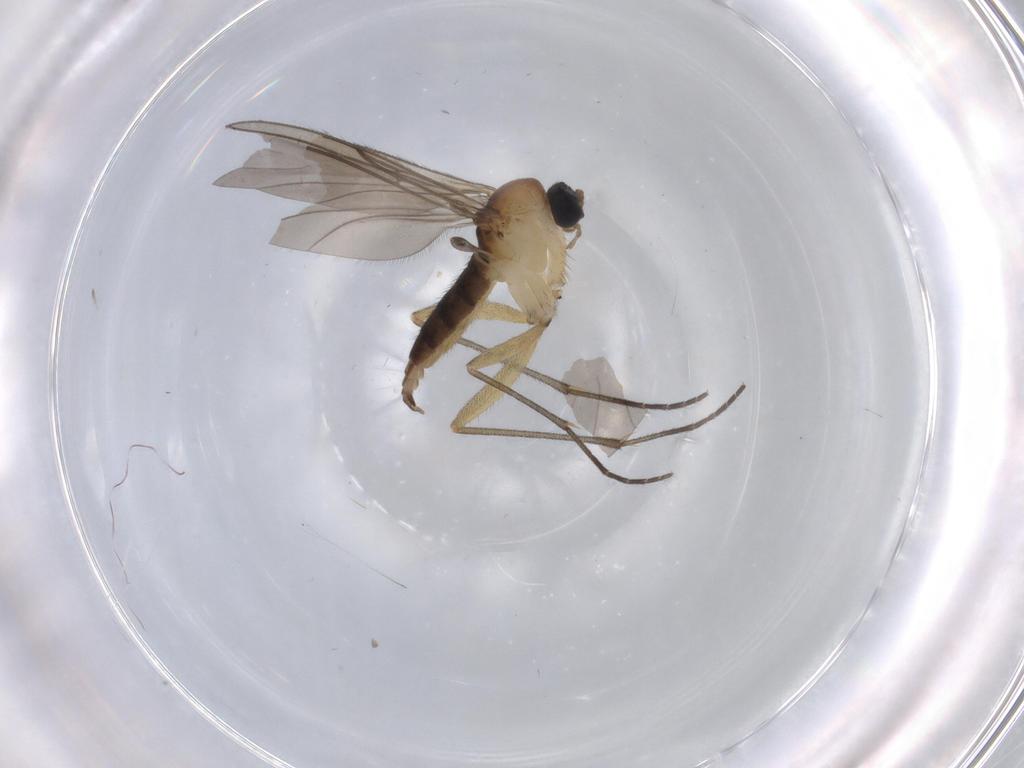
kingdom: Animalia
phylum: Arthropoda
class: Insecta
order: Diptera
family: Sciaridae
